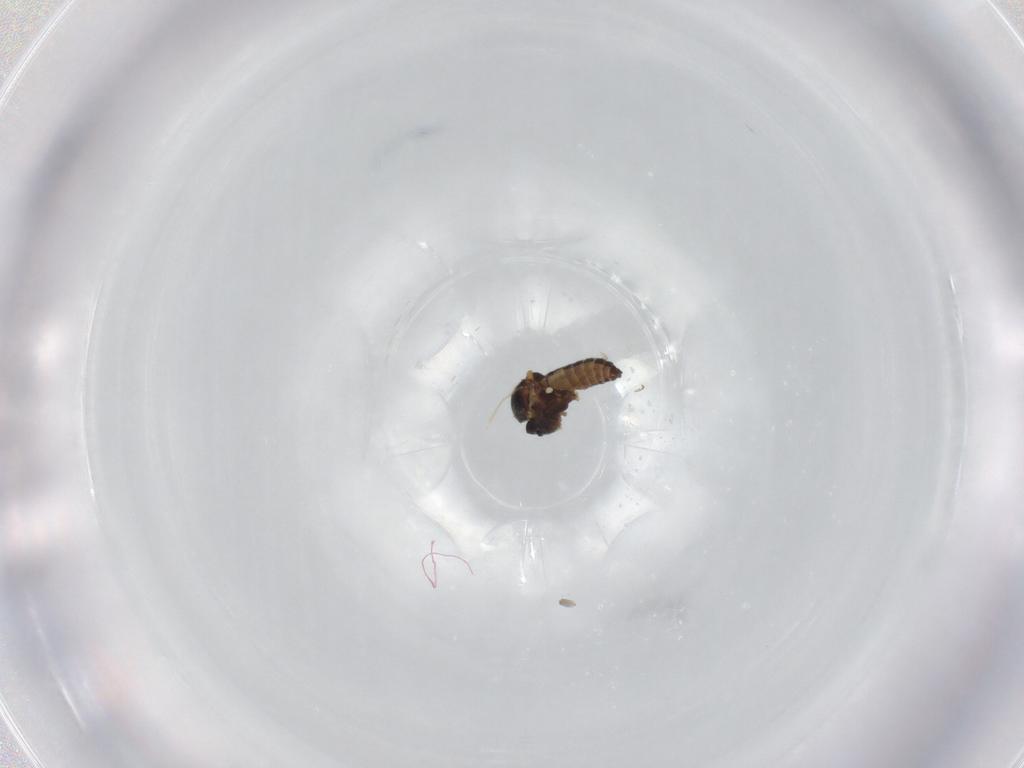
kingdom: Animalia
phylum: Arthropoda
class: Insecta
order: Diptera
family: Ceratopogonidae
